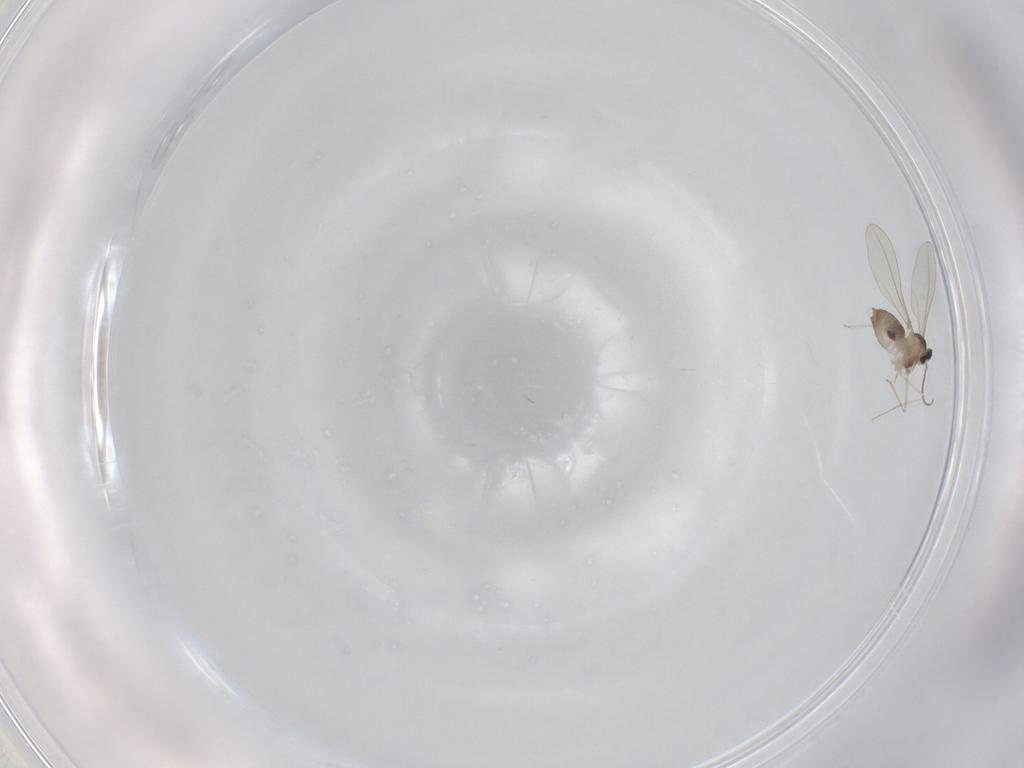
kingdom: Animalia
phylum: Arthropoda
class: Insecta
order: Diptera
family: Cecidomyiidae
